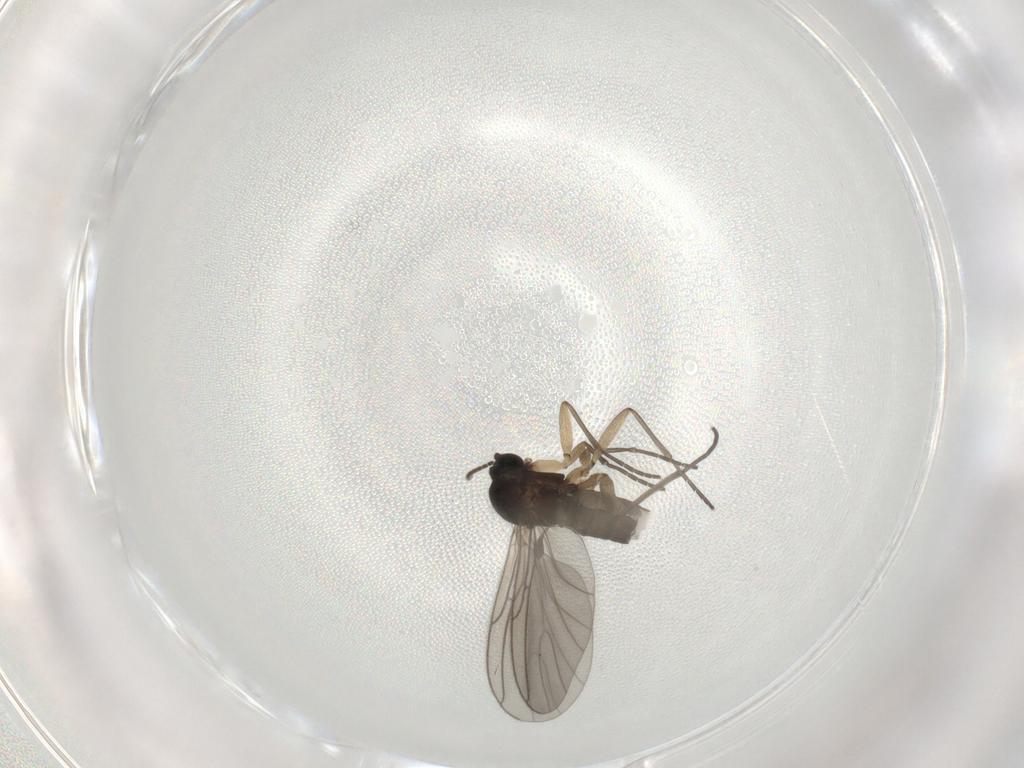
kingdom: Animalia
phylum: Arthropoda
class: Insecta
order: Diptera
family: Sciaridae
